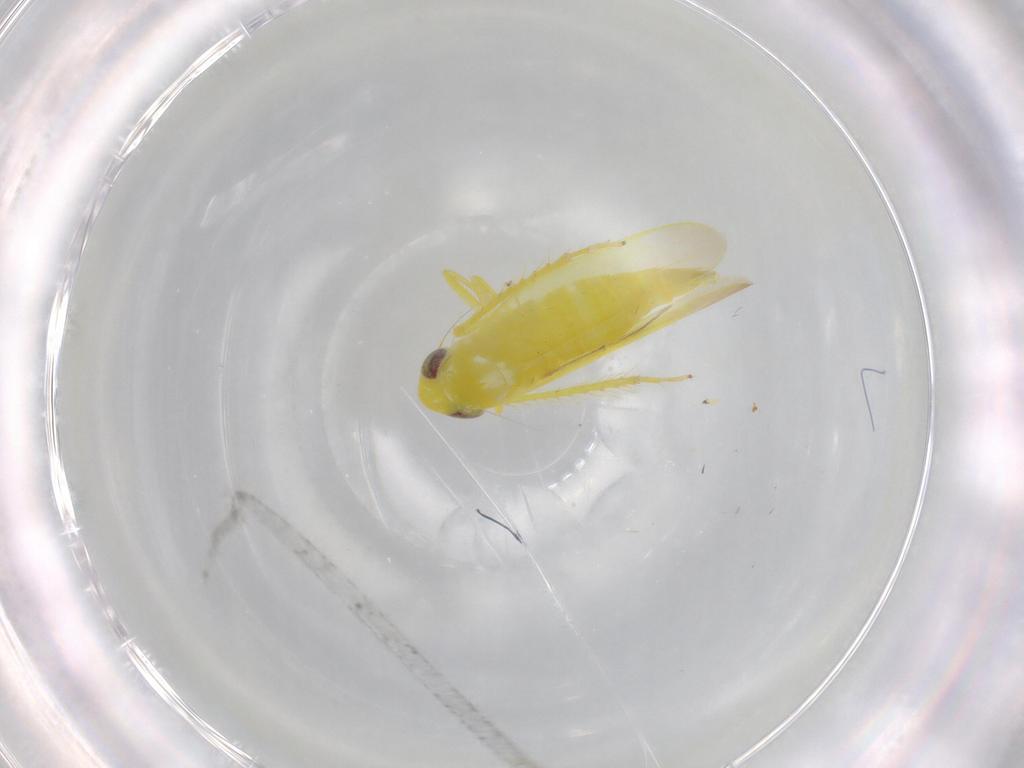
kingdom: Animalia
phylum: Arthropoda
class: Insecta
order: Hemiptera
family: Cicadellidae
